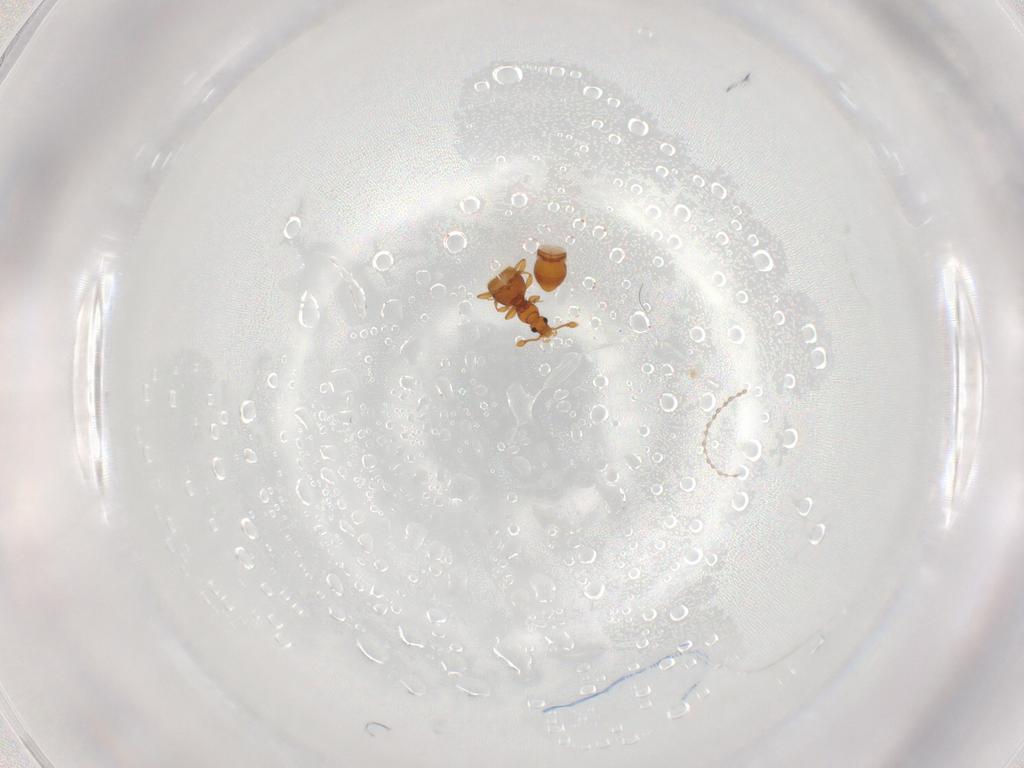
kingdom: Animalia
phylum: Arthropoda
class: Insecta
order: Coleoptera
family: Staphylinidae
